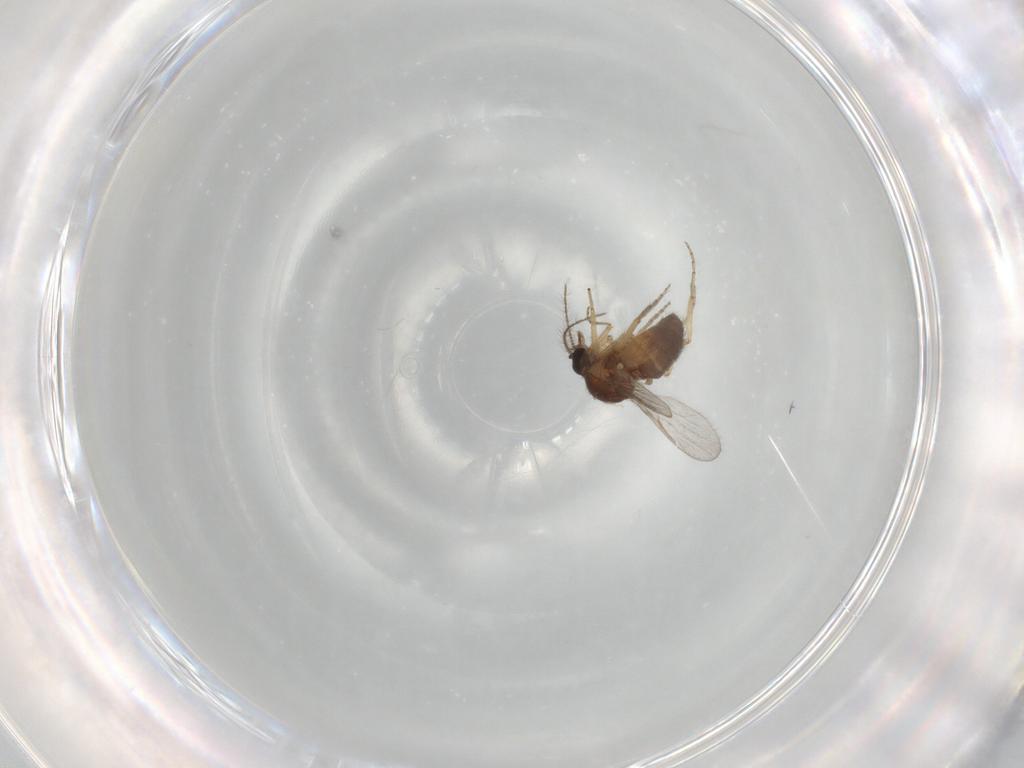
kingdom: Animalia
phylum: Arthropoda
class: Insecta
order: Diptera
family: Ceratopogonidae
